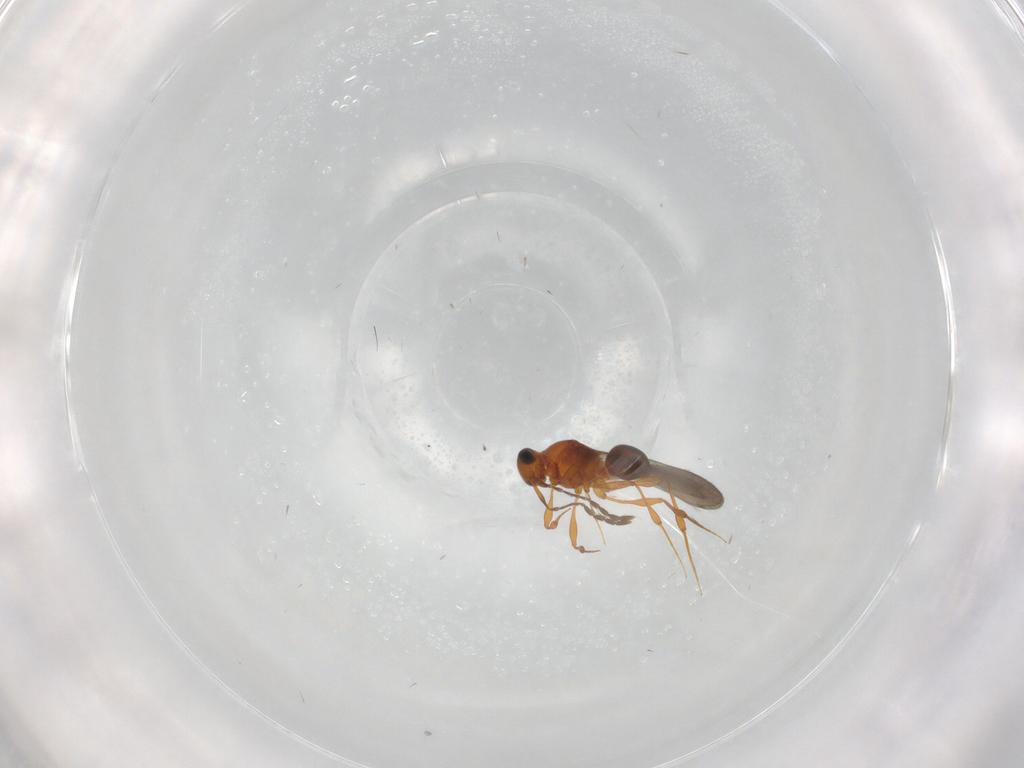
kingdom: Animalia
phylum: Arthropoda
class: Insecta
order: Hymenoptera
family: Platygastridae
